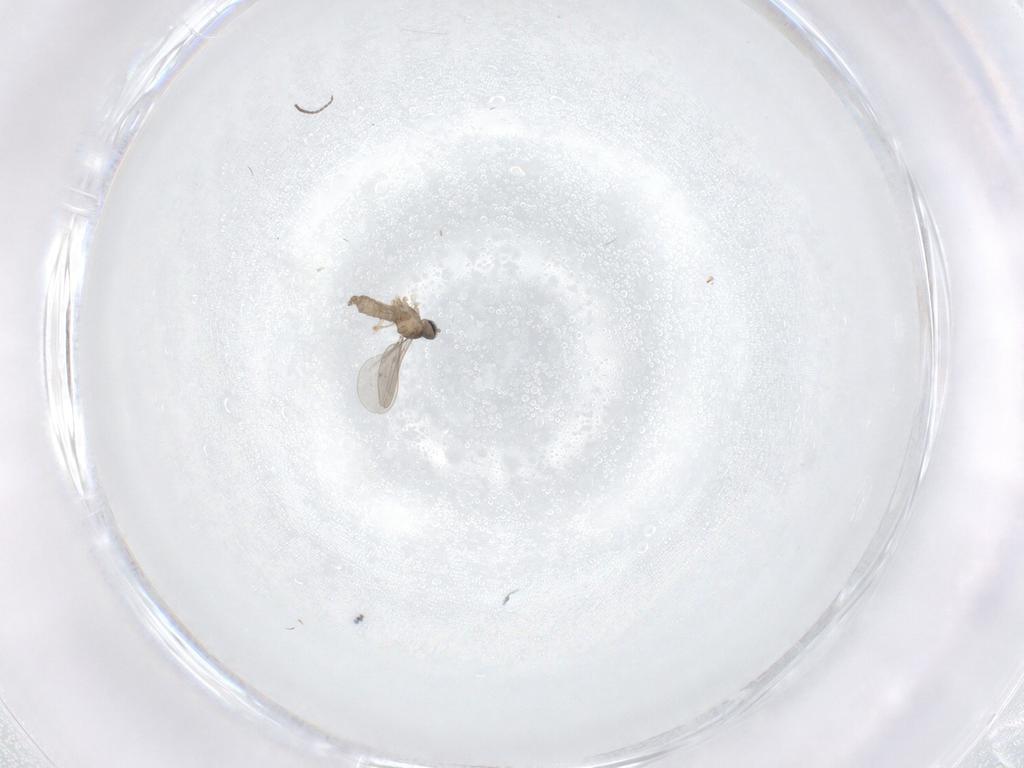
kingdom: Animalia
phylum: Arthropoda
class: Insecta
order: Diptera
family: Cecidomyiidae
